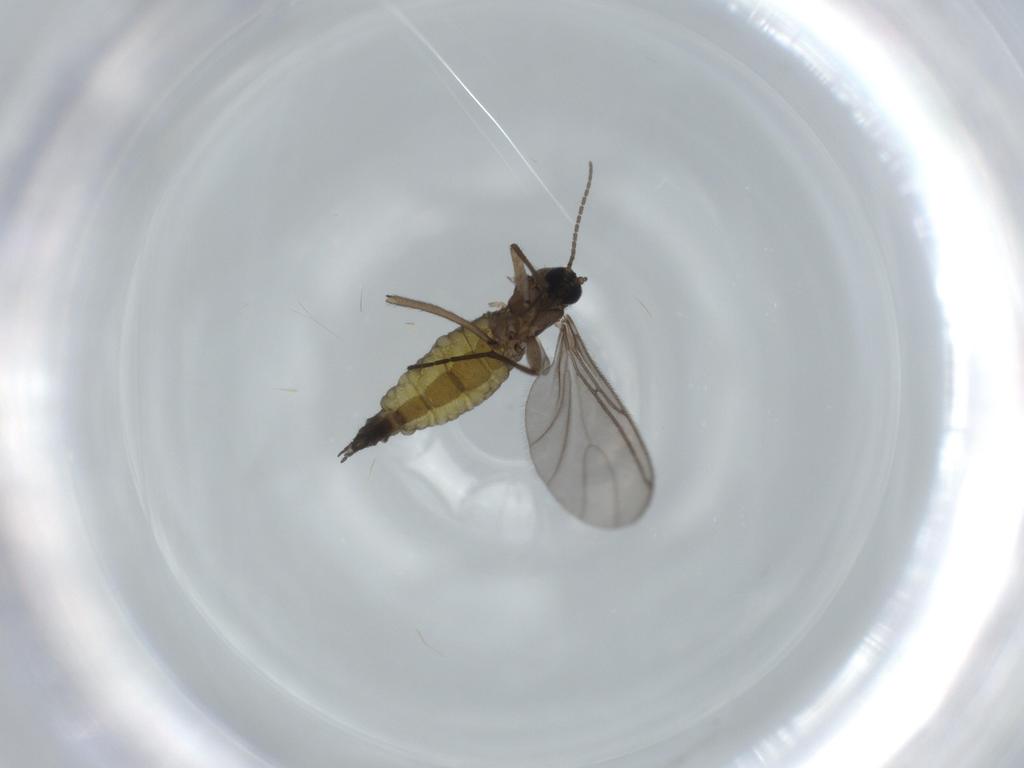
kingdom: Animalia
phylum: Arthropoda
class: Insecta
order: Diptera
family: Sciaridae
